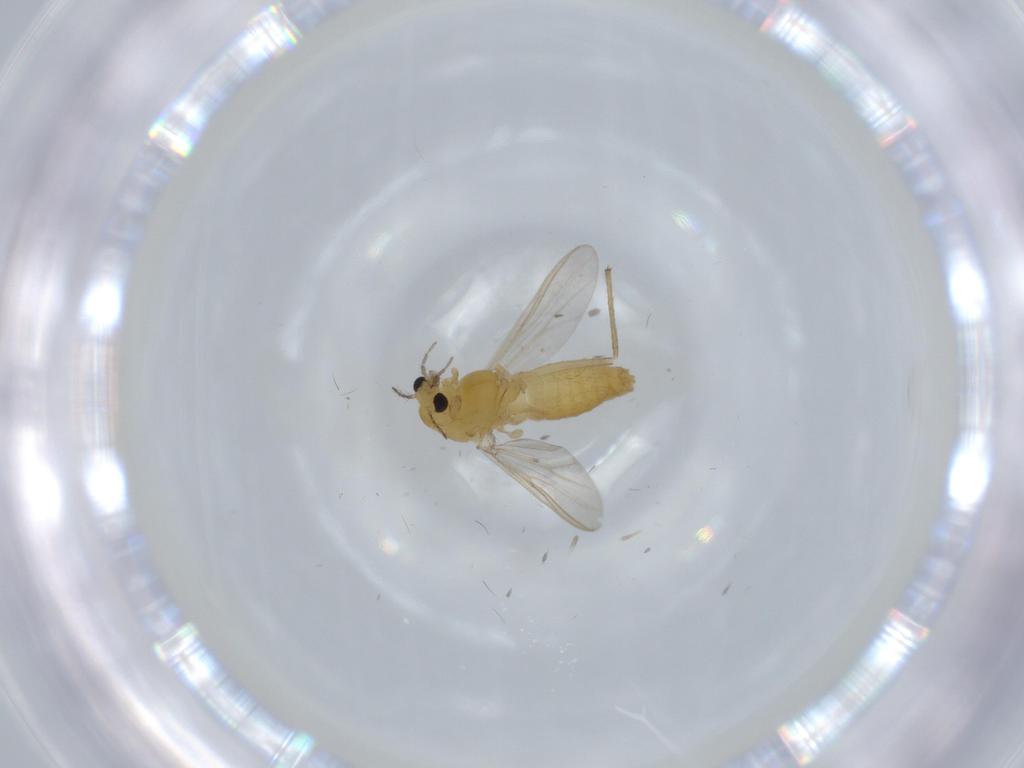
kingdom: Animalia
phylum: Arthropoda
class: Insecta
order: Diptera
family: Chironomidae
